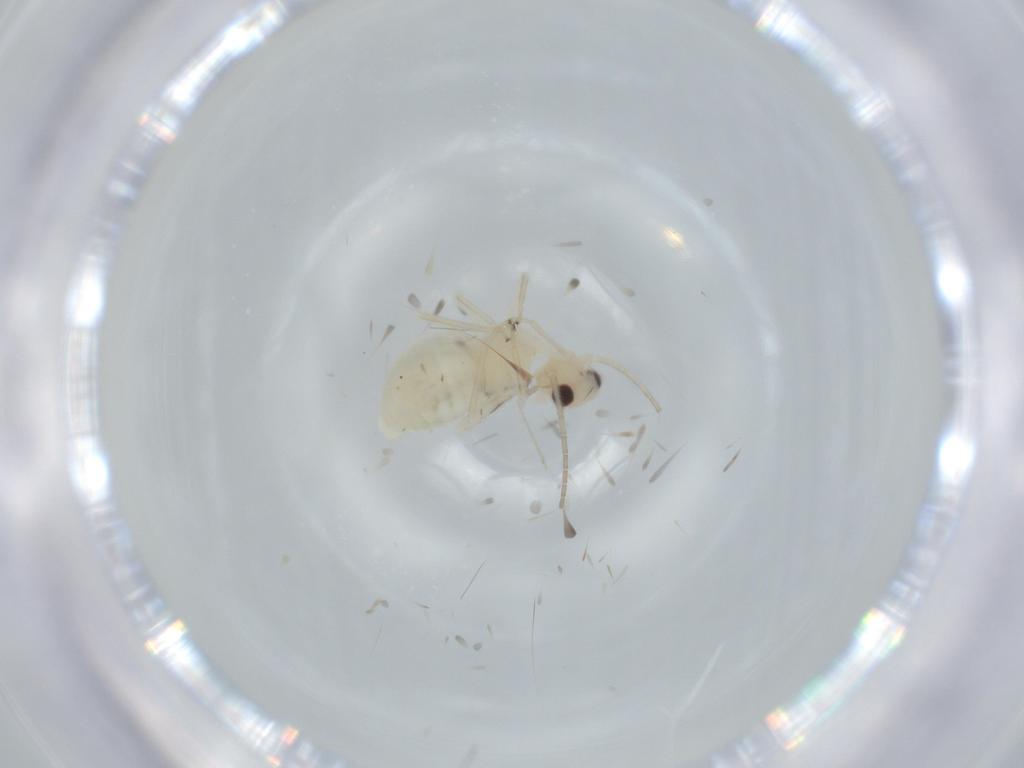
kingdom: Animalia
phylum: Arthropoda
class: Insecta
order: Psocodea
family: Caeciliusidae
